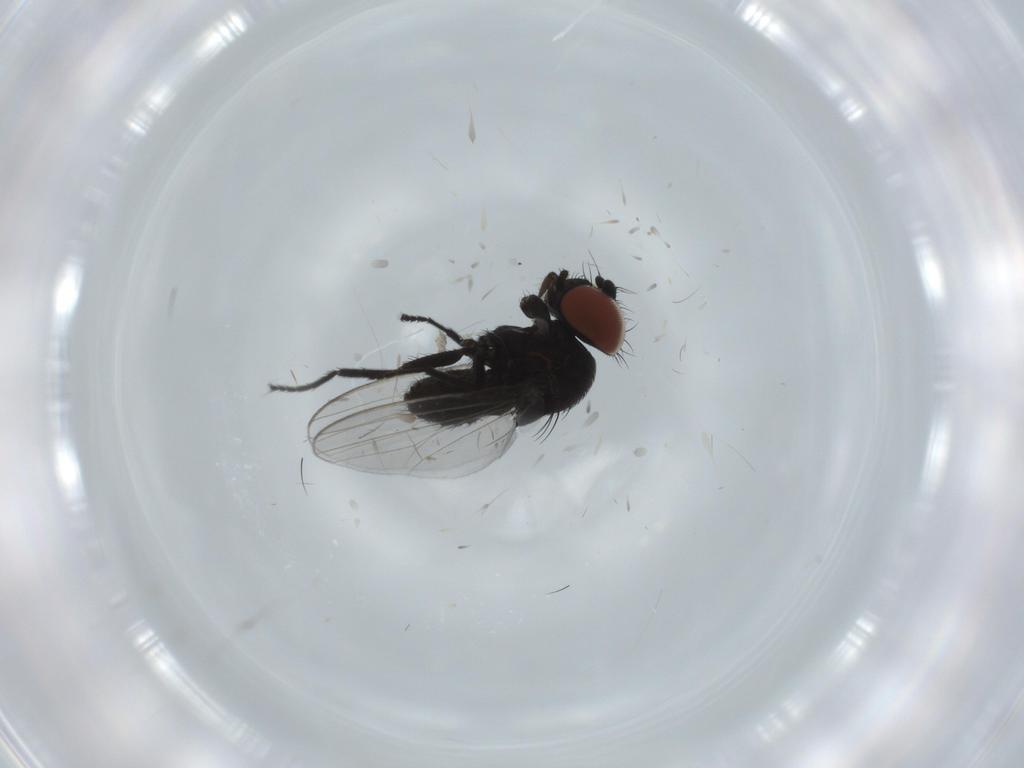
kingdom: Animalia
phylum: Arthropoda
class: Insecta
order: Diptera
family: Milichiidae
